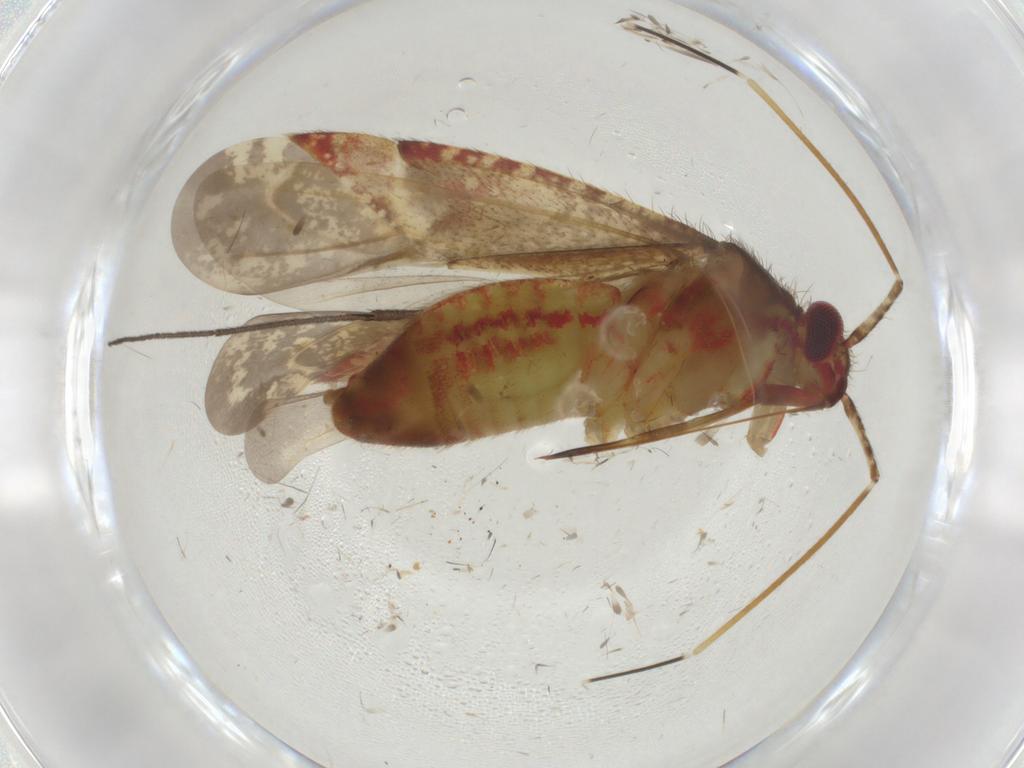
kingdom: Animalia
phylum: Arthropoda
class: Insecta
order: Hemiptera
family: Miridae
